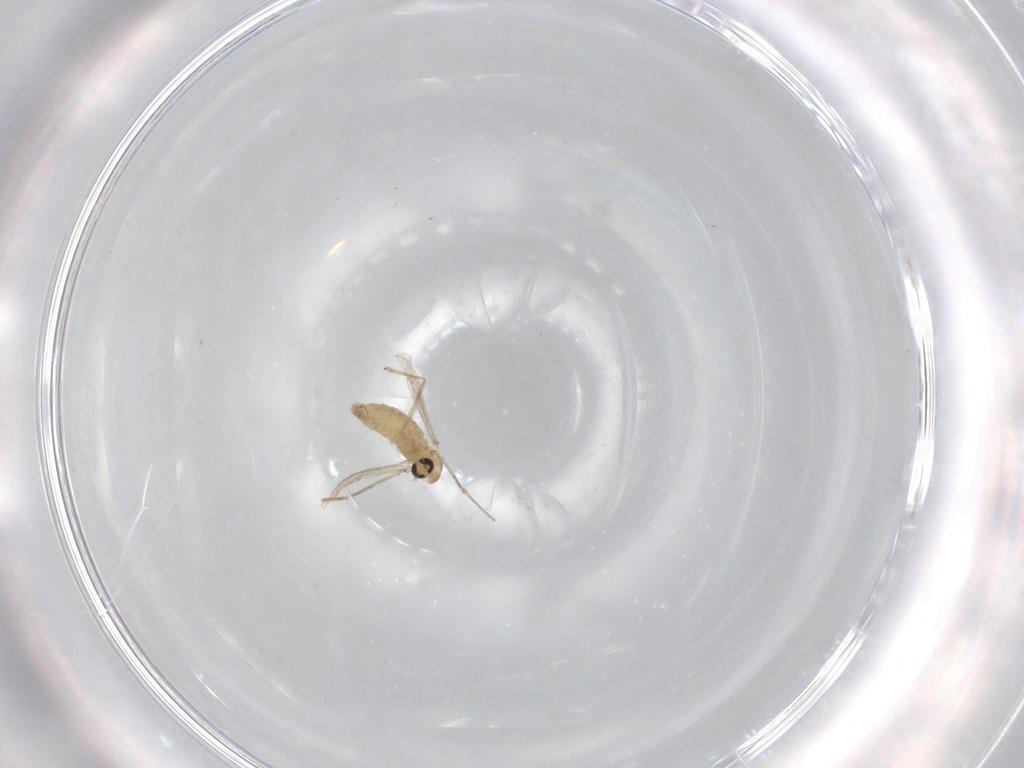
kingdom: Animalia
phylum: Arthropoda
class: Insecta
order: Diptera
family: Chironomidae
